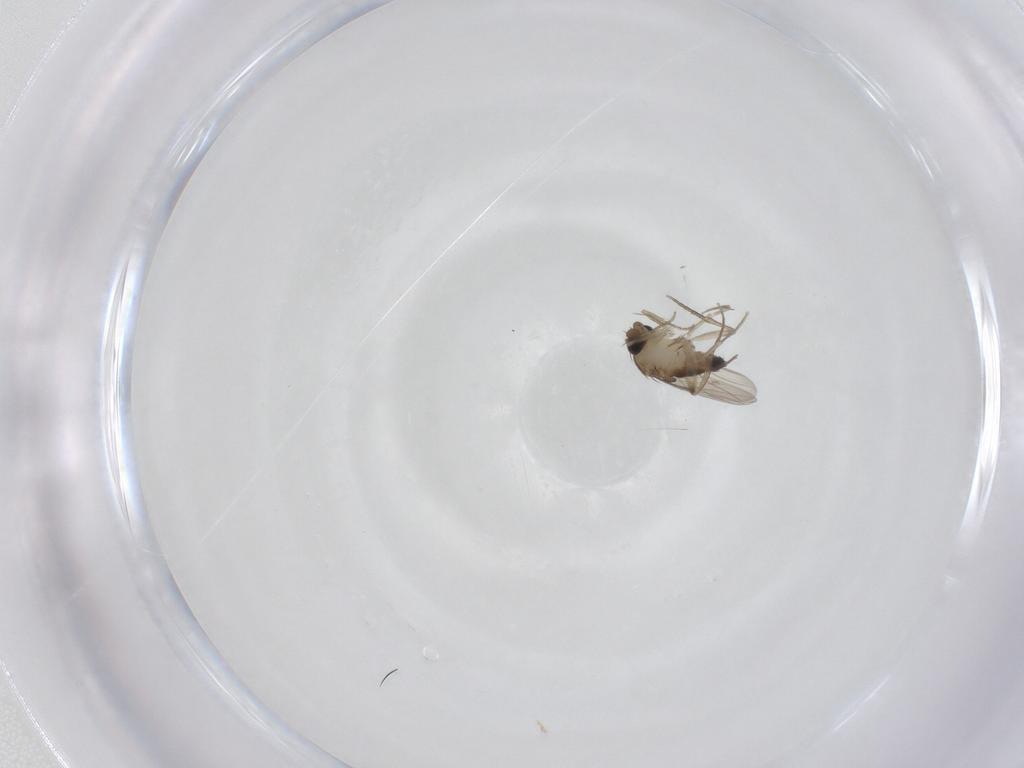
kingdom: Animalia
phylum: Arthropoda
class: Insecta
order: Diptera
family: Phoridae
